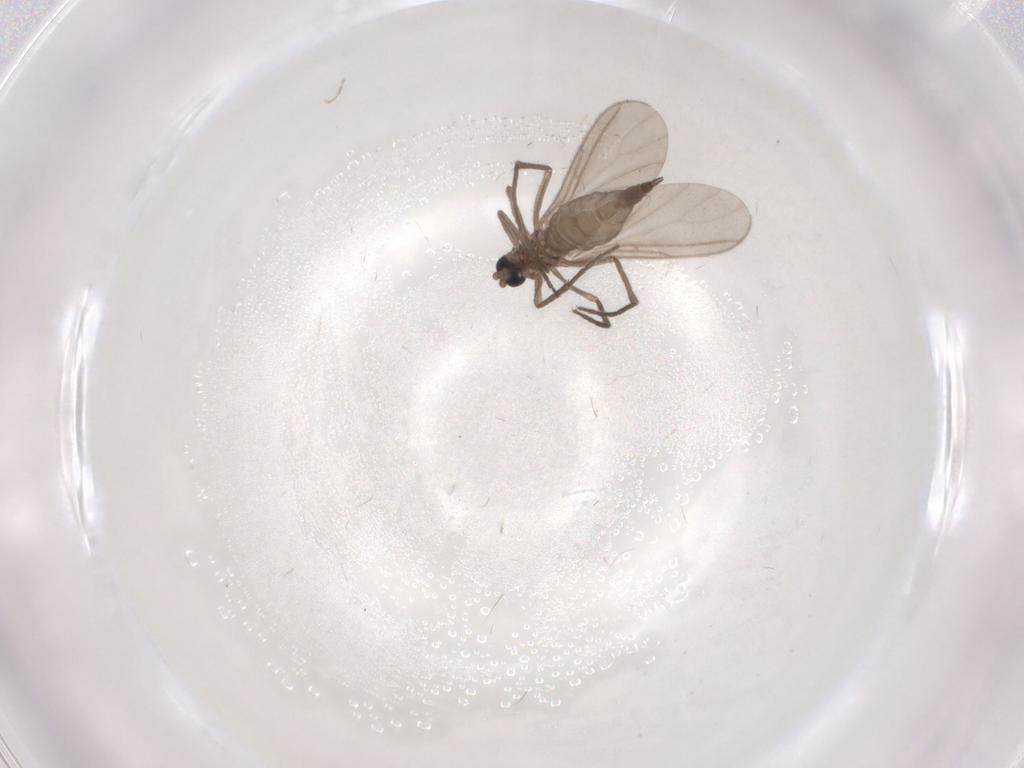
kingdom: Animalia
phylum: Arthropoda
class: Insecta
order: Diptera
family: Sciaridae
